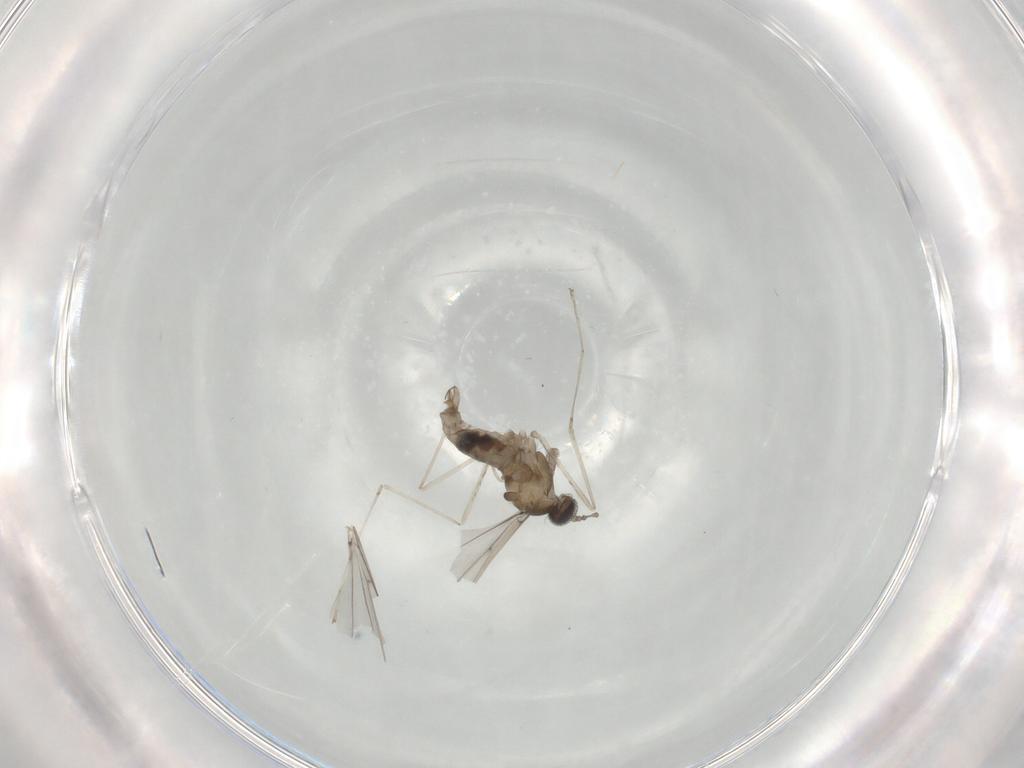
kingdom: Animalia
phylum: Arthropoda
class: Insecta
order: Diptera
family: Cecidomyiidae
